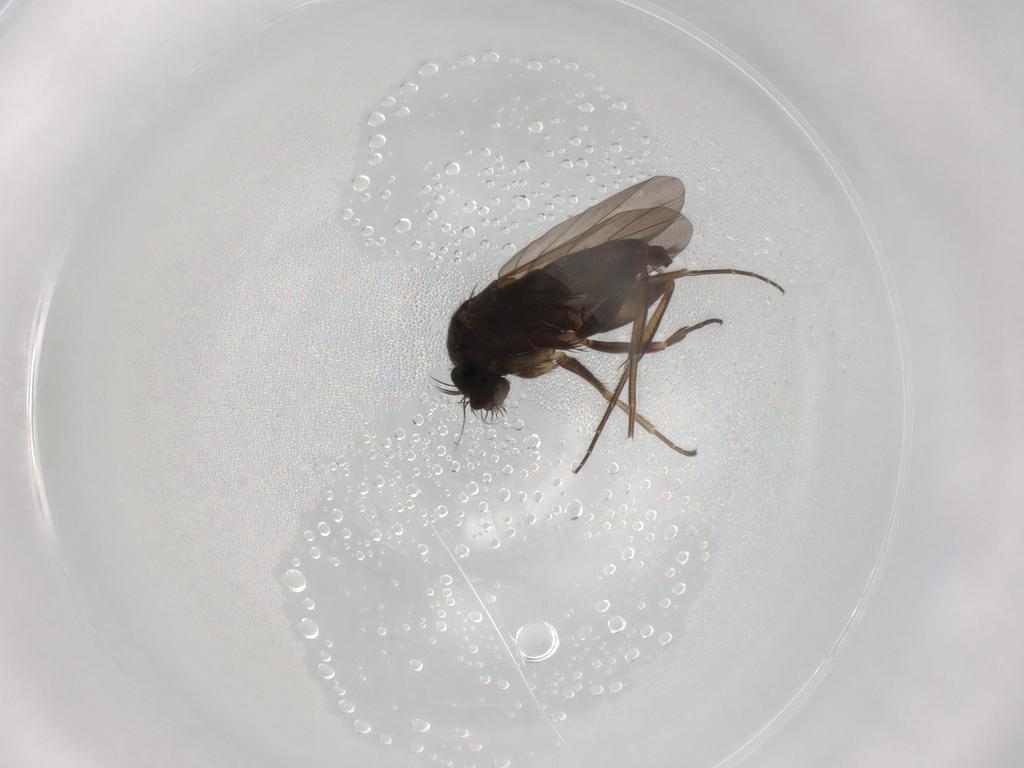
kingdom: Animalia
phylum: Arthropoda
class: Insecta
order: Diptera
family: Phoridae
